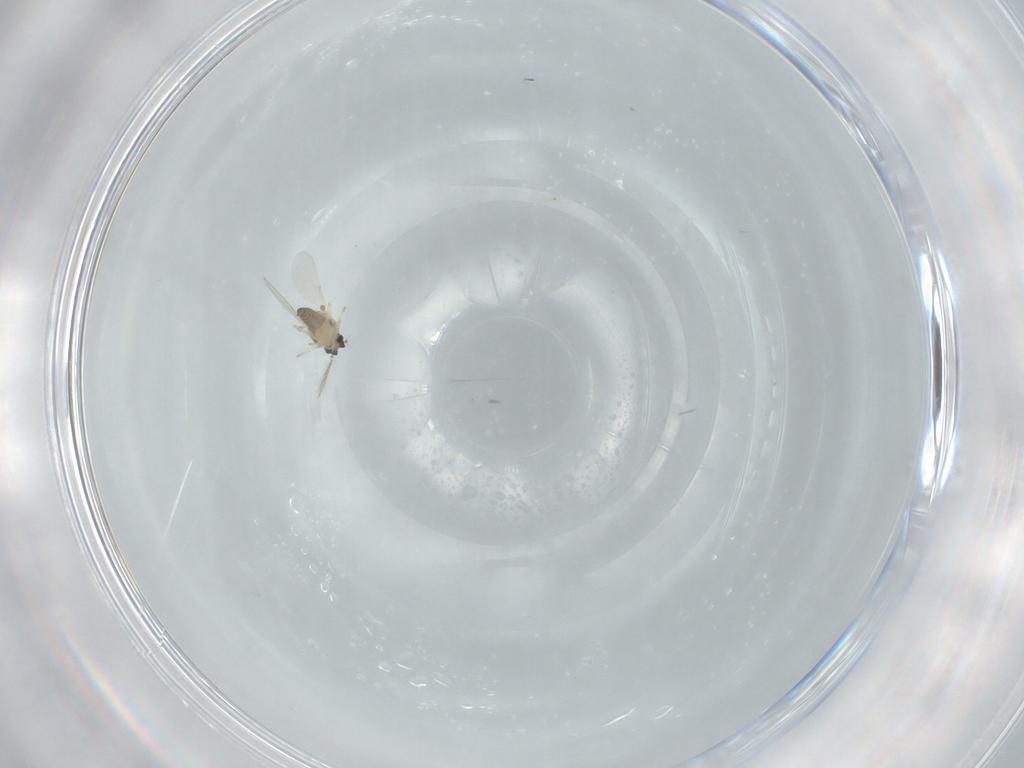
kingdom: Animalia
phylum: Arthropoda
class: Insecta
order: Diptera
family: Ceratopogonidae
